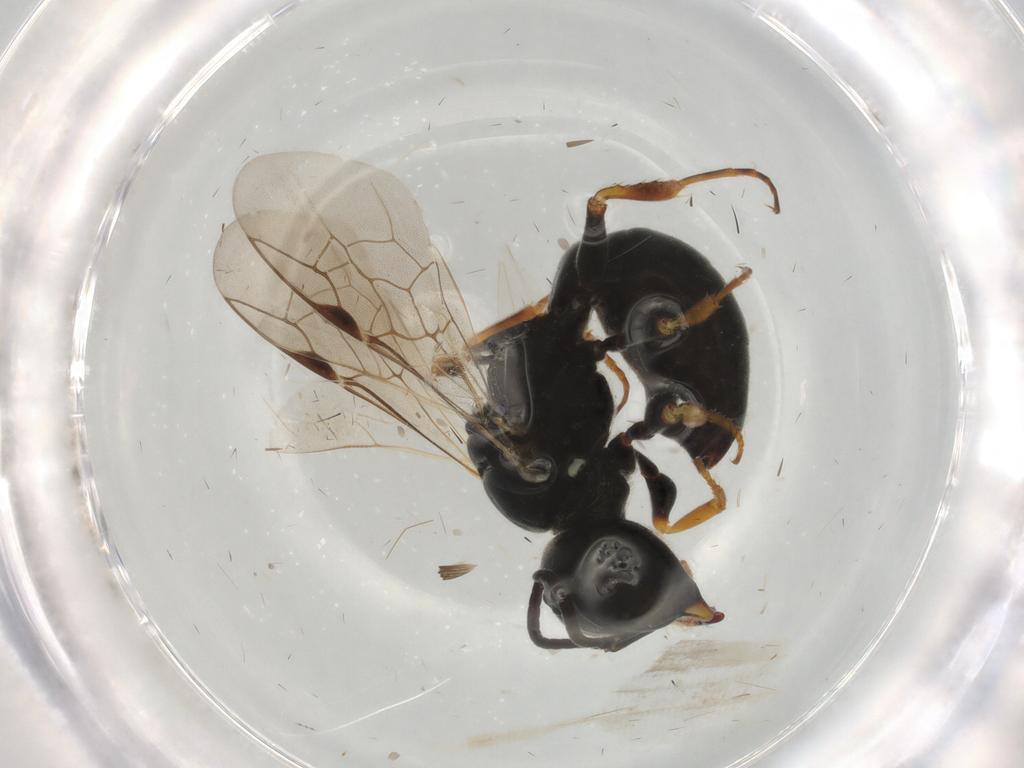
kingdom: Animalia
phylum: Arthropoda
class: Insecta
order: Hymenoptera
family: Pemphredonidae
